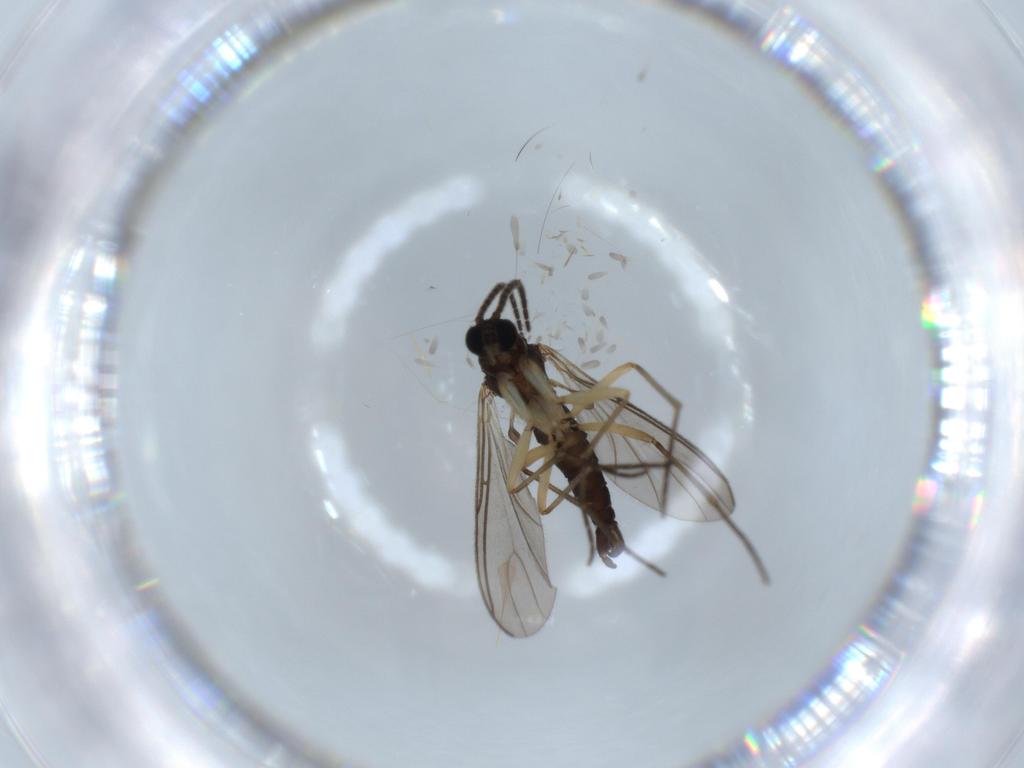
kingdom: Animalia
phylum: Arthropoda
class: Insecta
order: Diptera
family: Sciaridae
